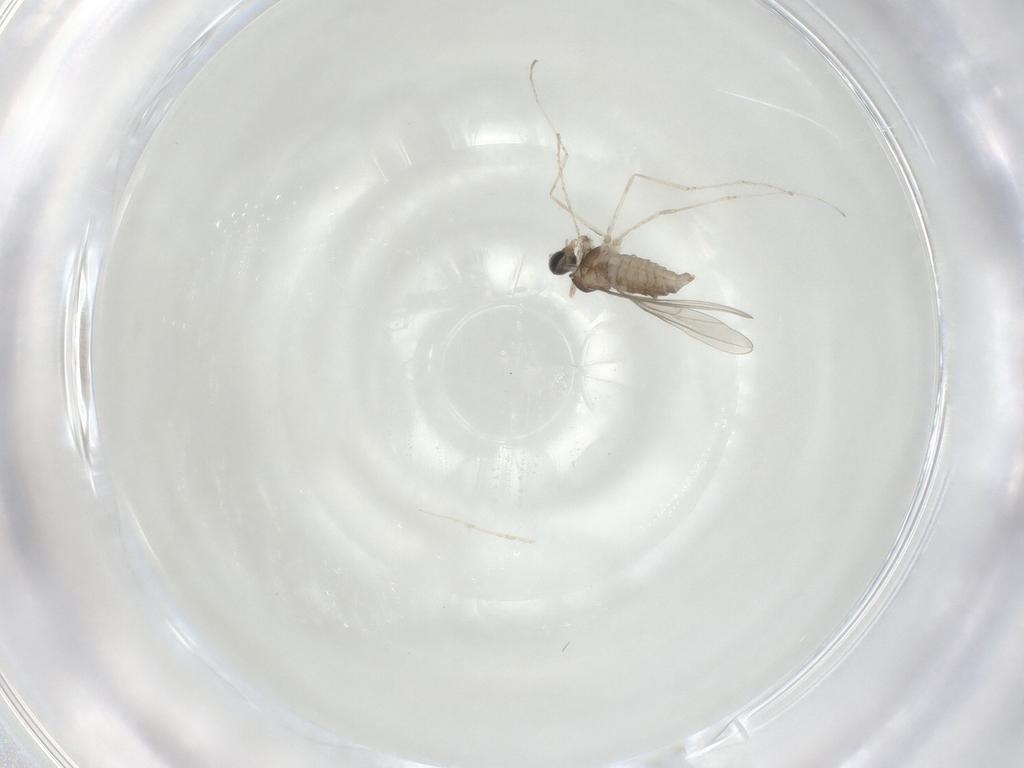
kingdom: Animalia
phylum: Arthropoda
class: Insecta
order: Diptera
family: Cecidomyiidae
